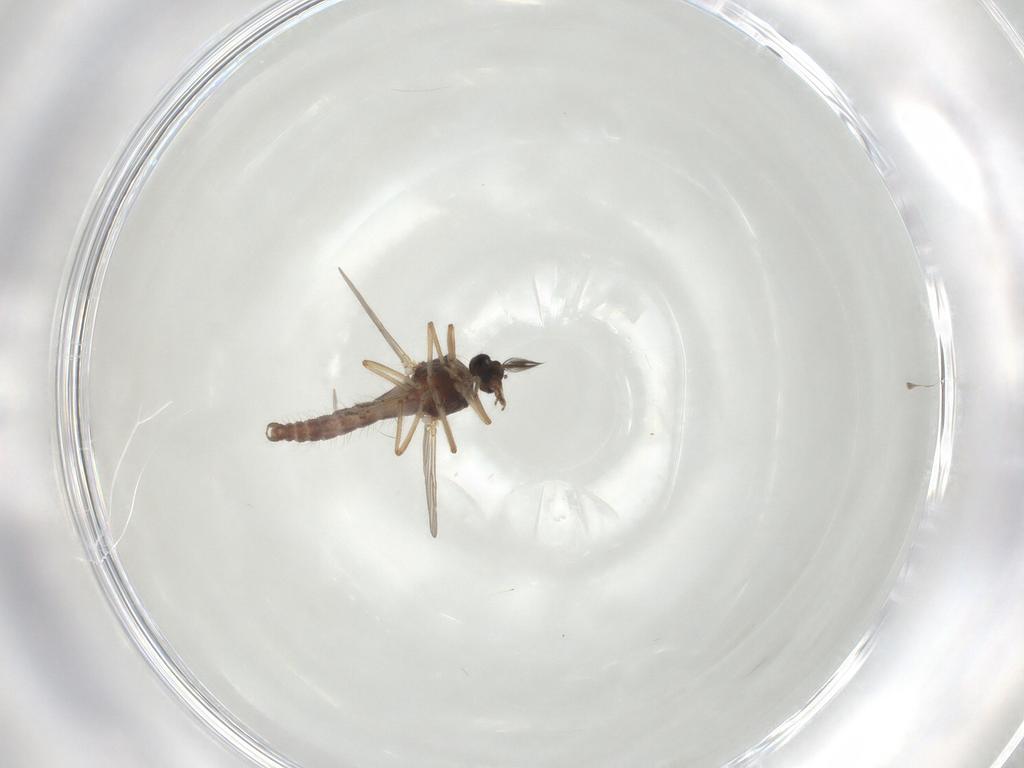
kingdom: Animalia
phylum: Arthropoda
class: Insecta
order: Diptera
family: Ceratopogonidae
